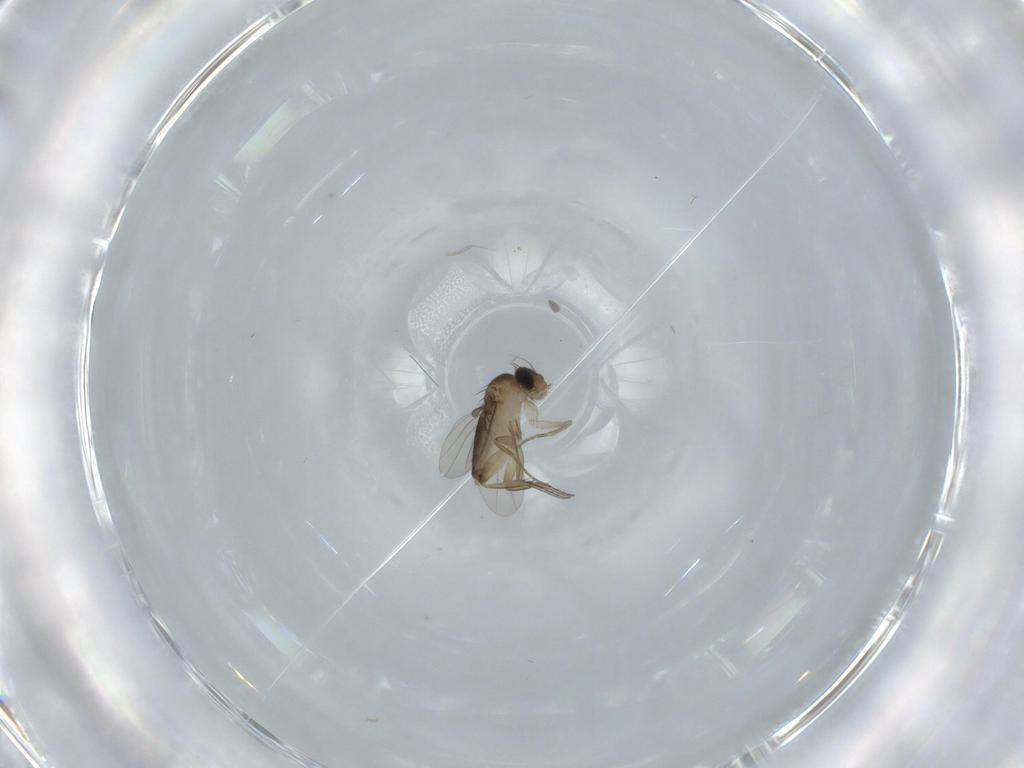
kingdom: Animalia
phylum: Arthropoda
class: Insecta
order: Diptera
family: Phoridae
